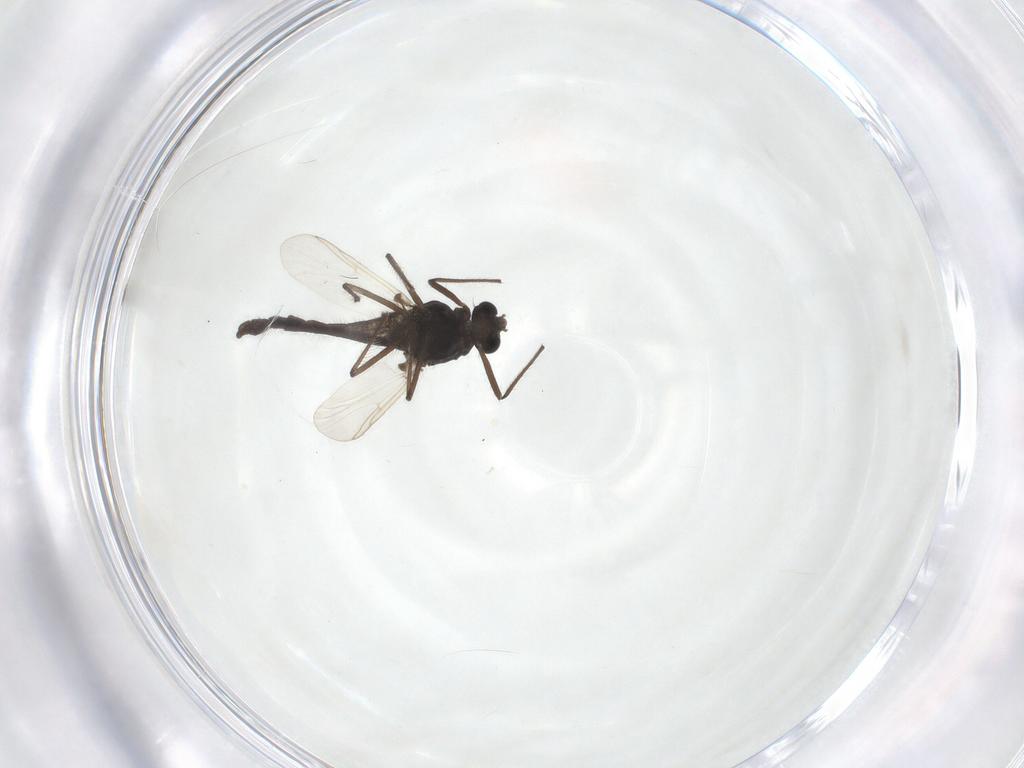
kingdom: Animalia
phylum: Arthropoda
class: Insecta
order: Diptera
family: Chironomidae
